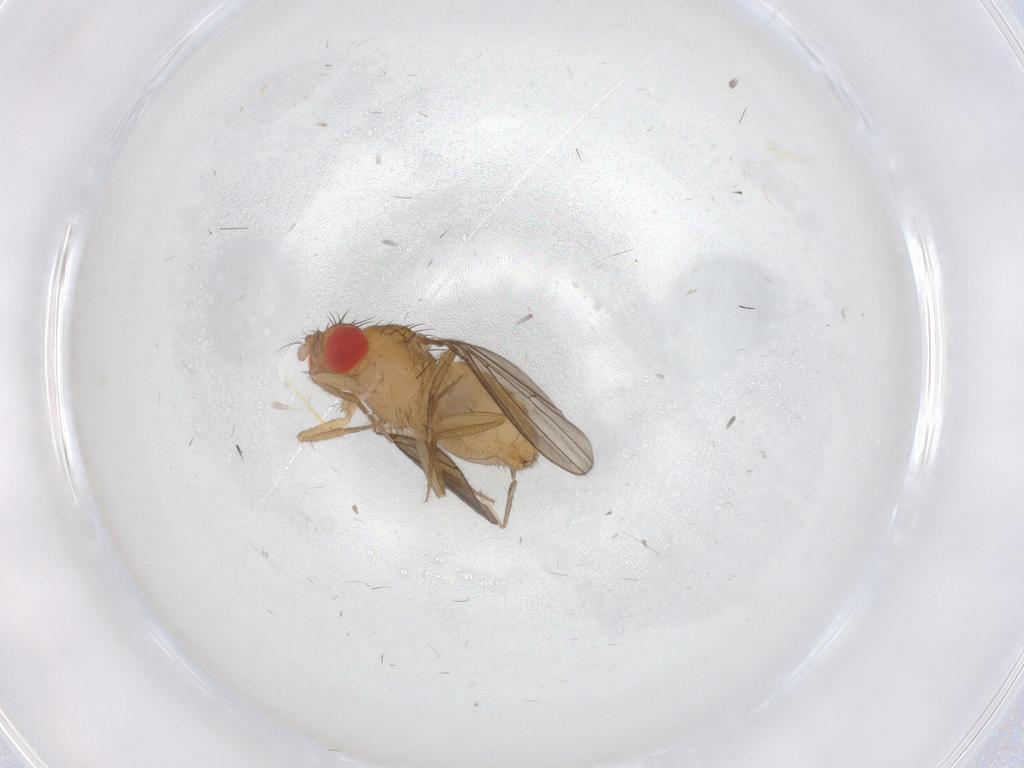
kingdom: Animalia
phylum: Arthropoda
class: Insecta
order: Diptera
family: Drosophilidae
